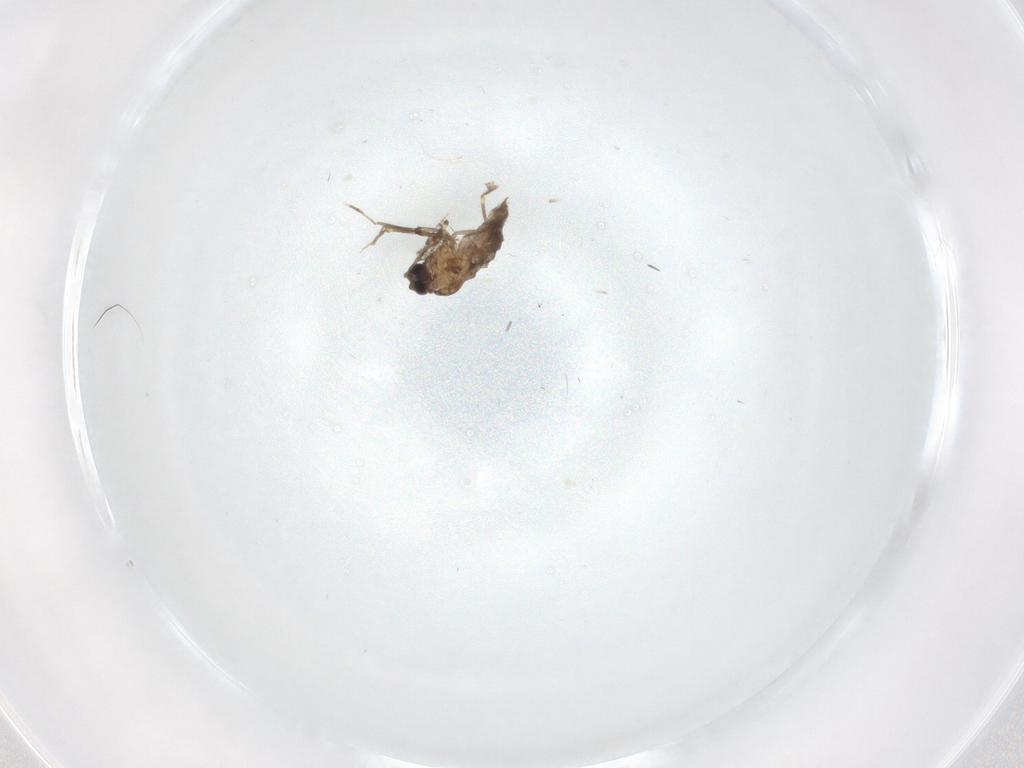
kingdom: Animalia
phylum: Arthropoda
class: Insecta
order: Diptera
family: Ceratopogonidae
